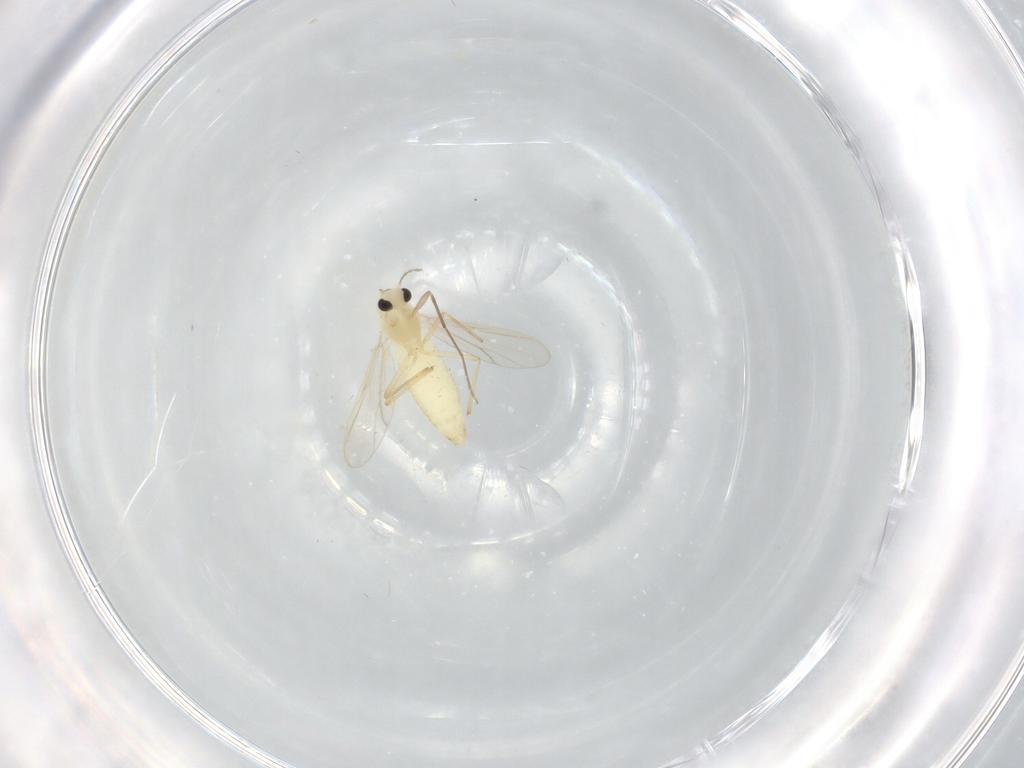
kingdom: Animalia
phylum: Arthropoda
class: Insecta
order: Diptera
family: Chironomidae
